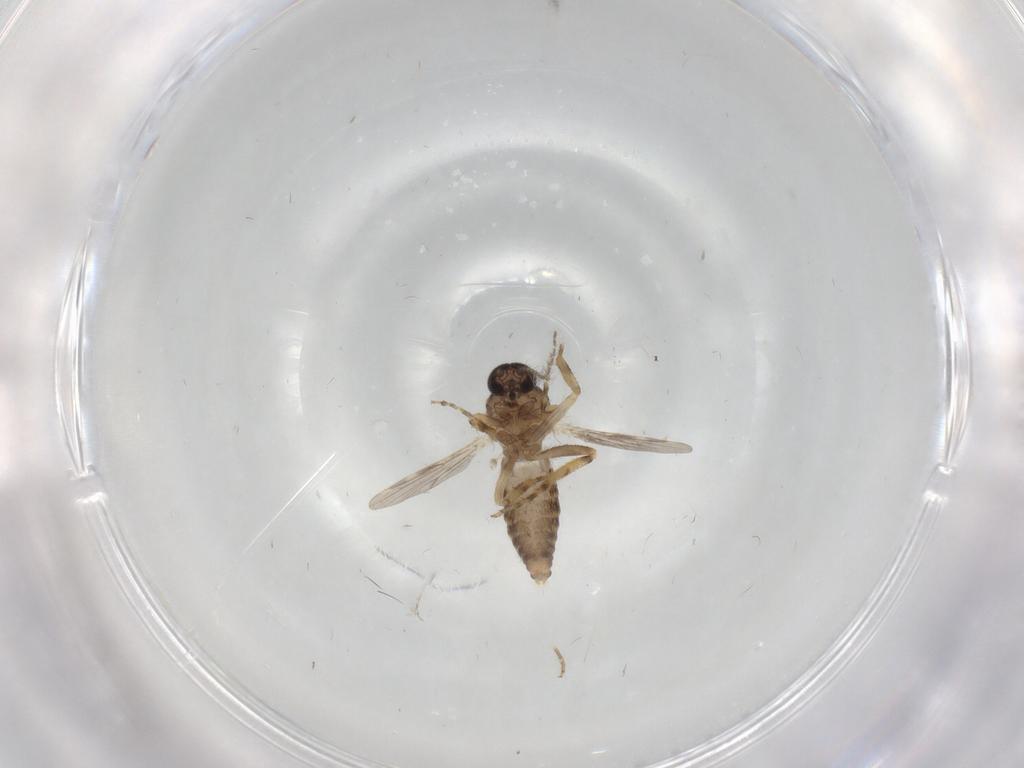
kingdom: Animalia
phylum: Arthropoda
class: Insecta
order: Diptera
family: Ceratopogonidae
